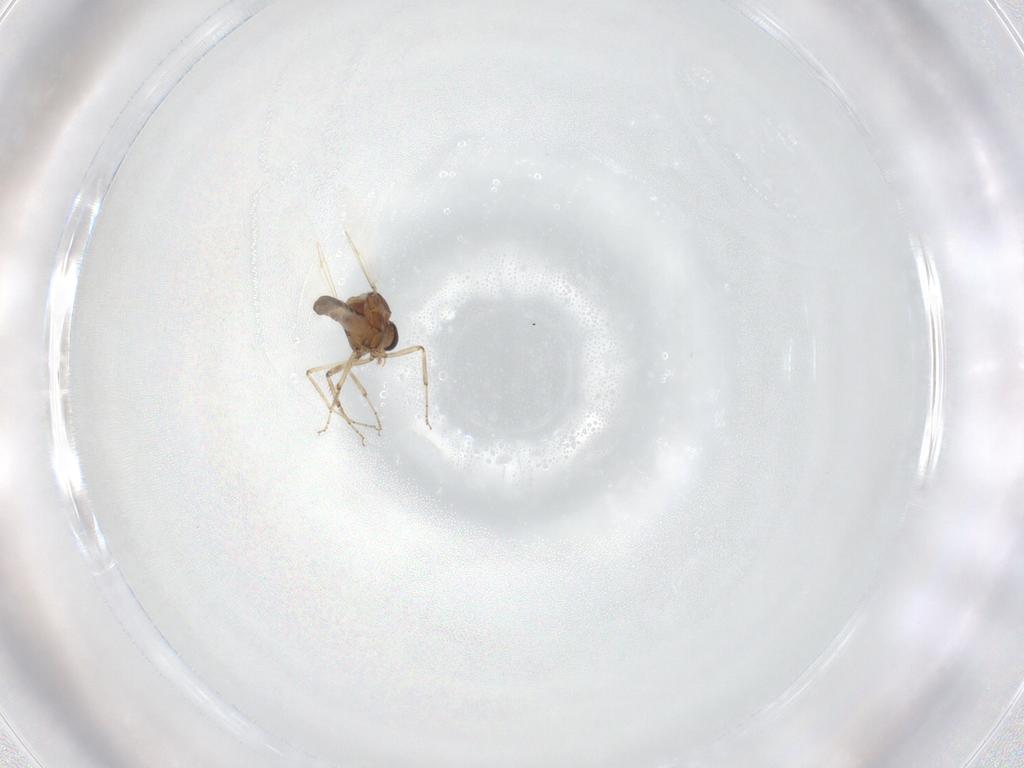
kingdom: Animalia
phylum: Arthropoda
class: Insecta
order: Diptera
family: Ceratopogonidae
